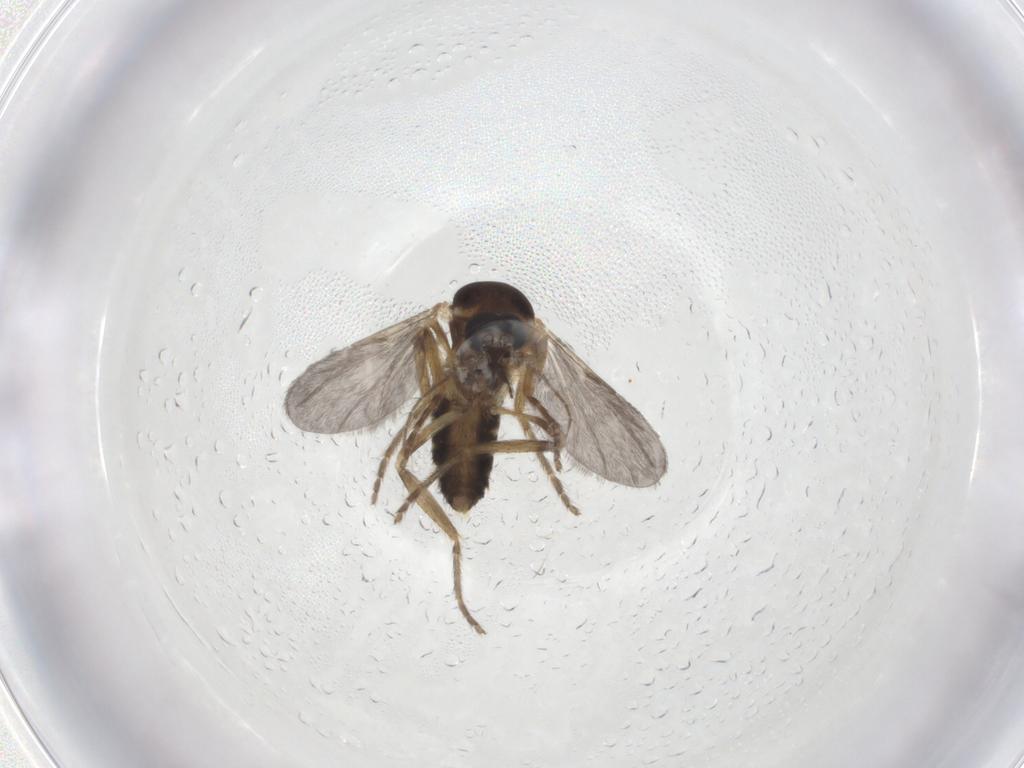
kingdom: Animalia
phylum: Arthropoda
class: Insecta
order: Diptera
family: Ceratopogonidae
